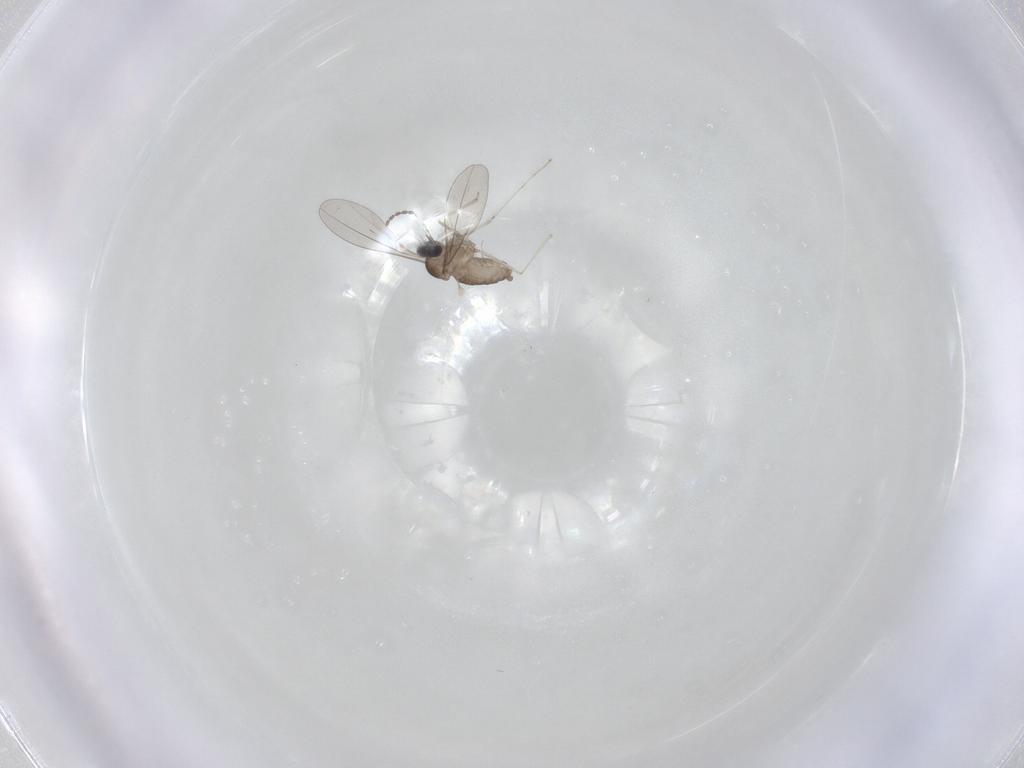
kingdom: Animalia
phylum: Arthropoda
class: Insecta
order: Diptera
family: Cecidomyiidae
